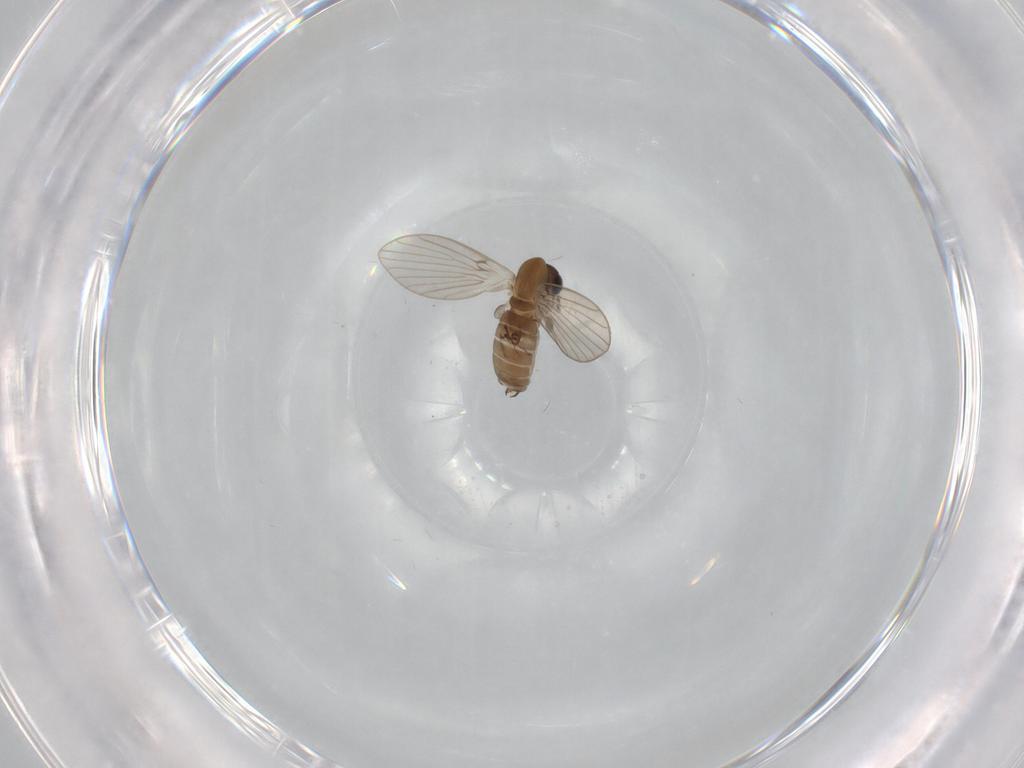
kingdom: Animalia
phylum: Arthropoda
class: Insecta
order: Diptera
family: Psychodidae
